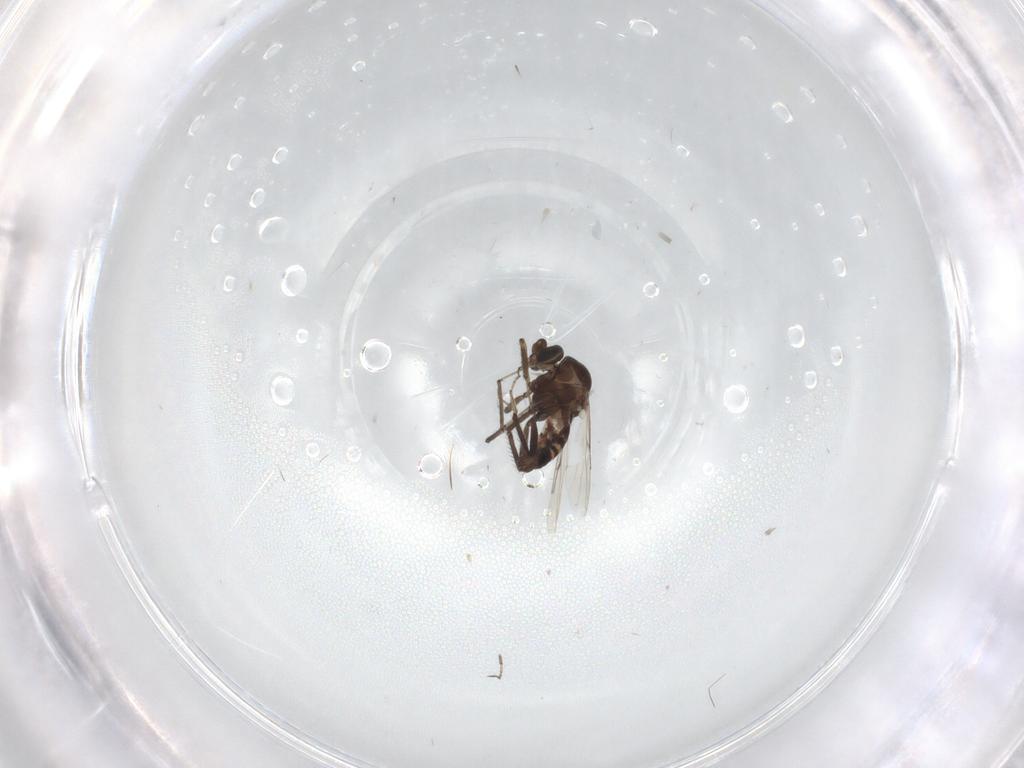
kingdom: Animalia
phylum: Arthropoda
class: Insecta
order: Diptera
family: Ceratopogonidae
